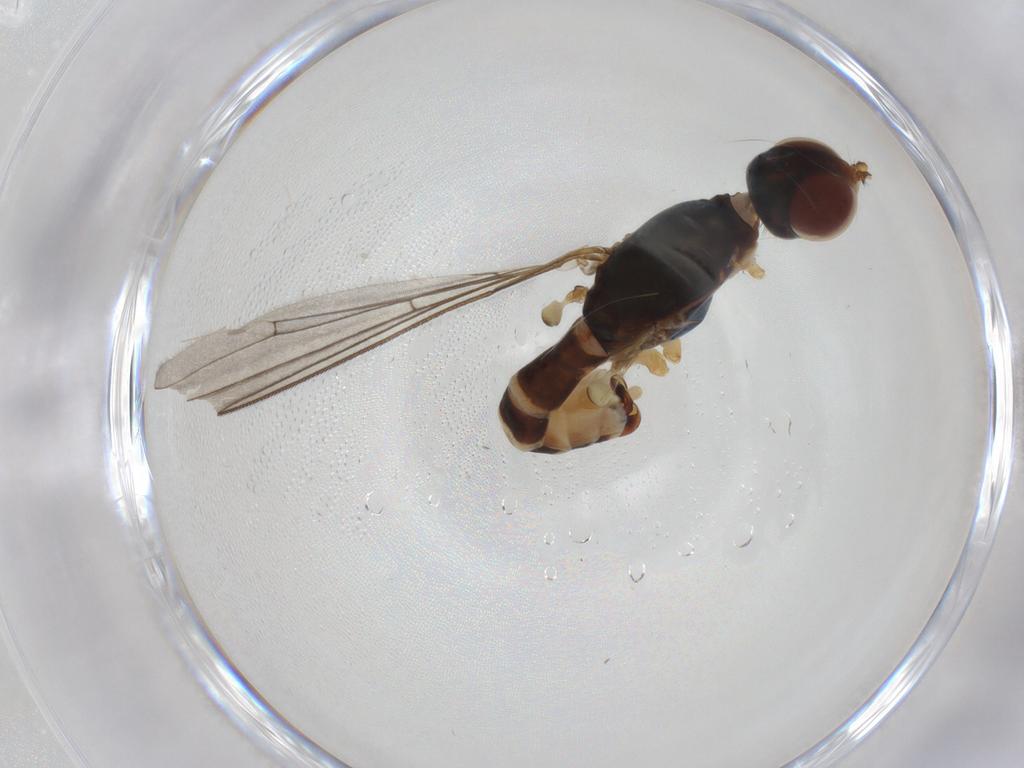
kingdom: Animalia
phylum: Arthropoda
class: Insecta
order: Diptera
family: Micropezidae
